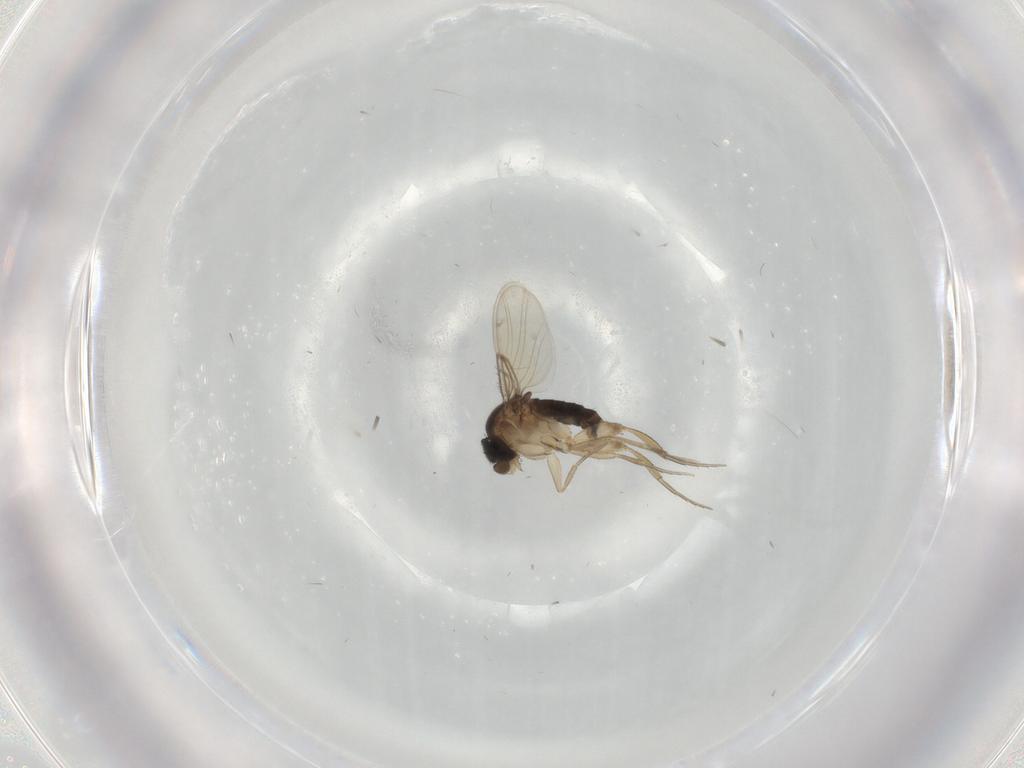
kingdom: Animalia
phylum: Arthropoda
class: Insecta
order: Diptera
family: Phoridae
